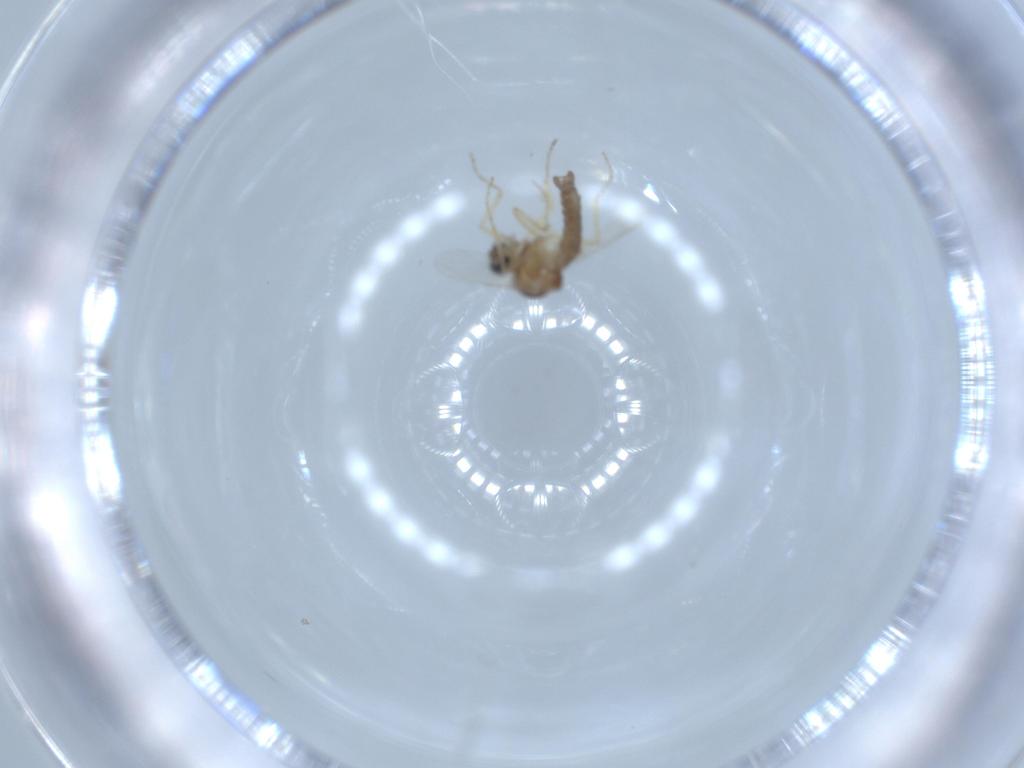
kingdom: Animalia
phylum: Arthropoda
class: Insecta
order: Diptera
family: Ceratopogonidae
